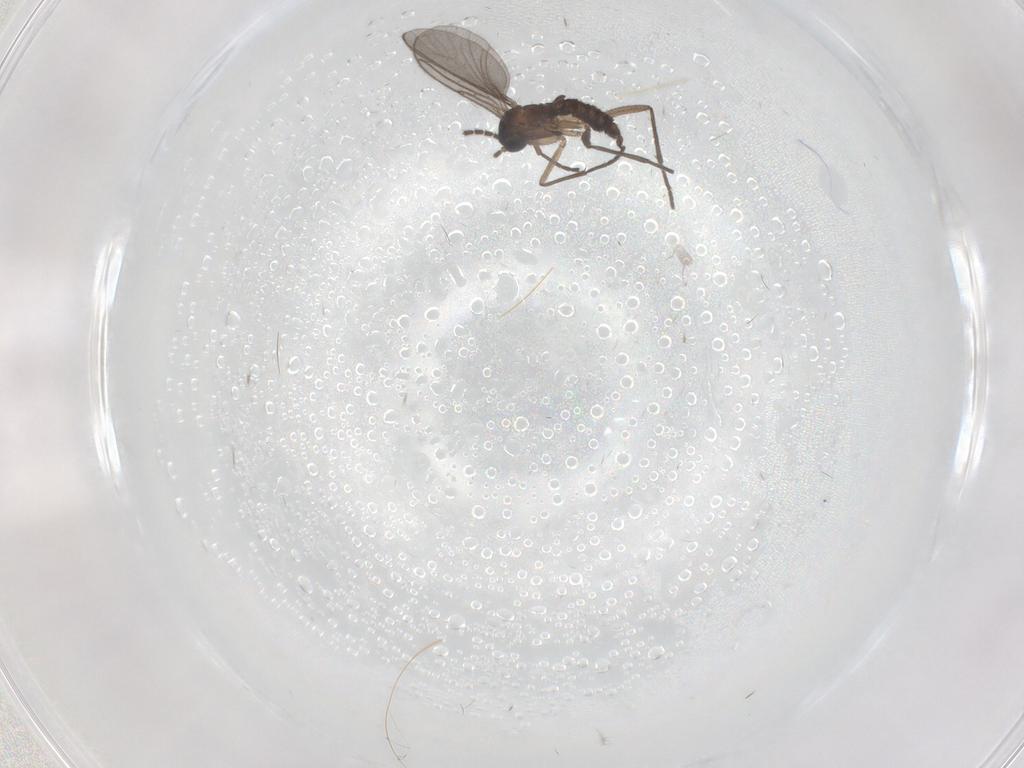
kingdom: Animalia
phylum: Arthropoda
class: Insecta
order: Diptera
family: Sciaridae
